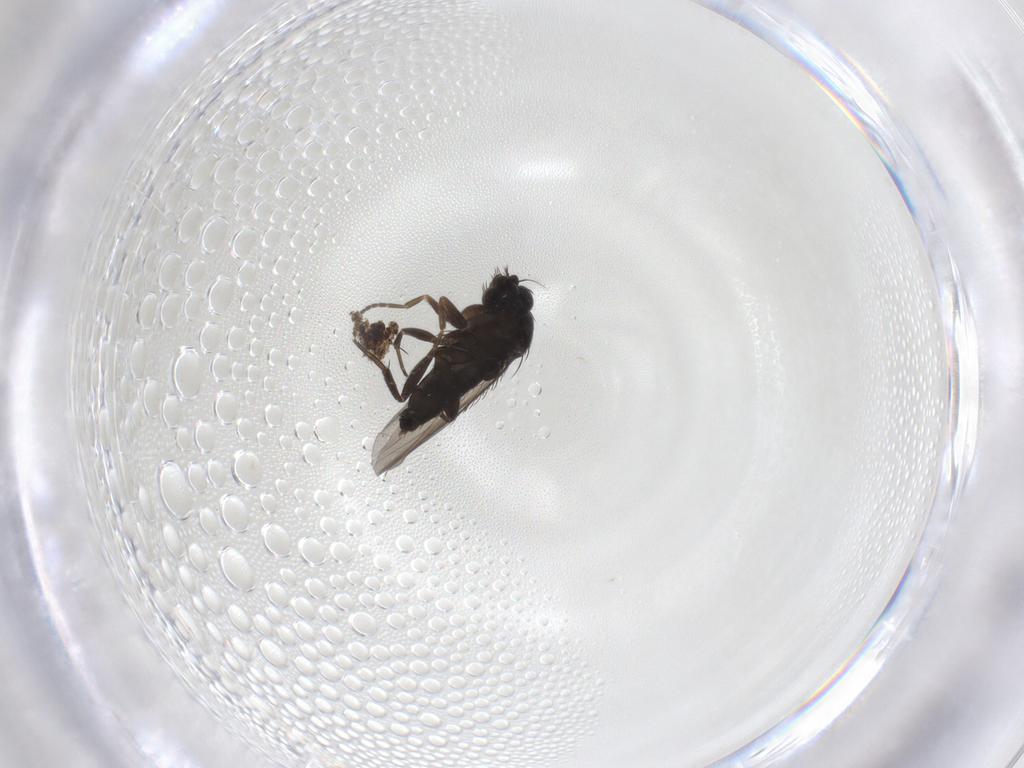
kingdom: Animalia
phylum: Arthropoda
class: Insecta
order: Diptera
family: Phoridae
